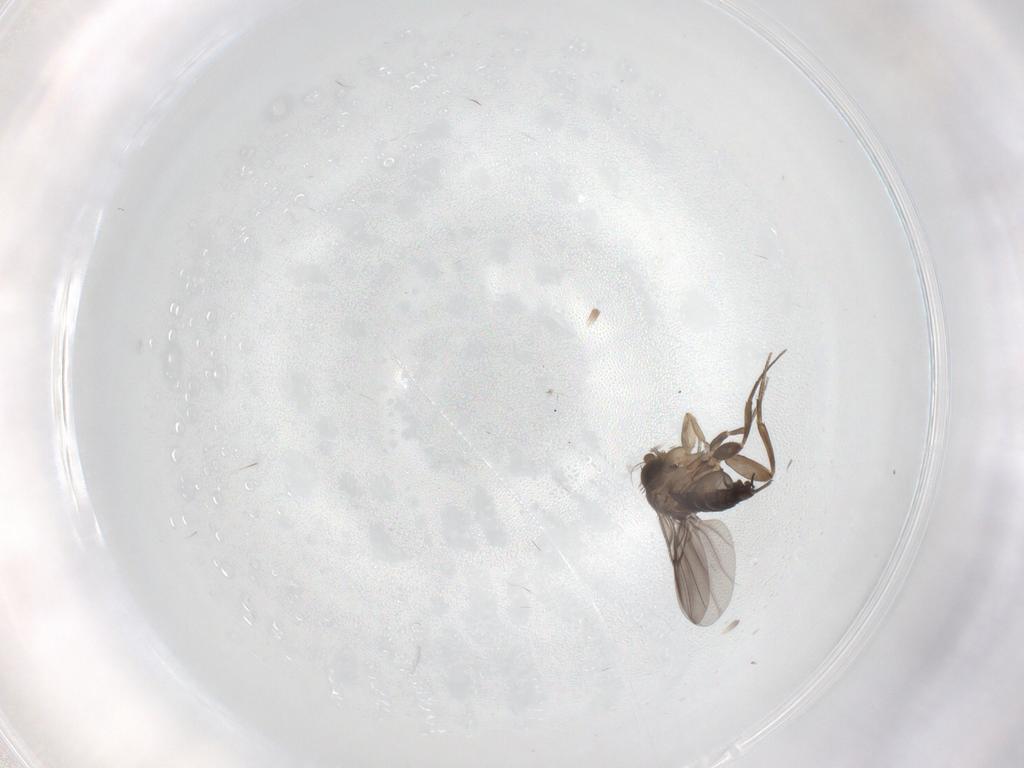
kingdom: Animalia
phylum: Arthropoda
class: Insecta
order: Diptera
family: Phoridae
